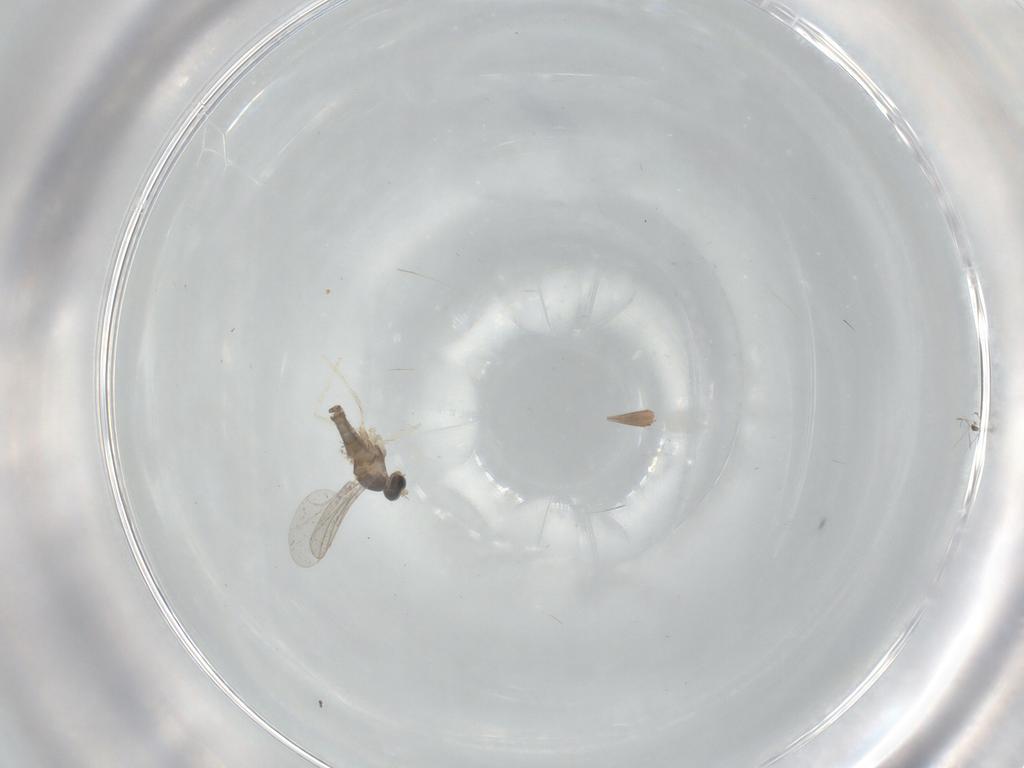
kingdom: Animalia
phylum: Arthropoda
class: Insecta
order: Diptera
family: Cecidomyiidae
